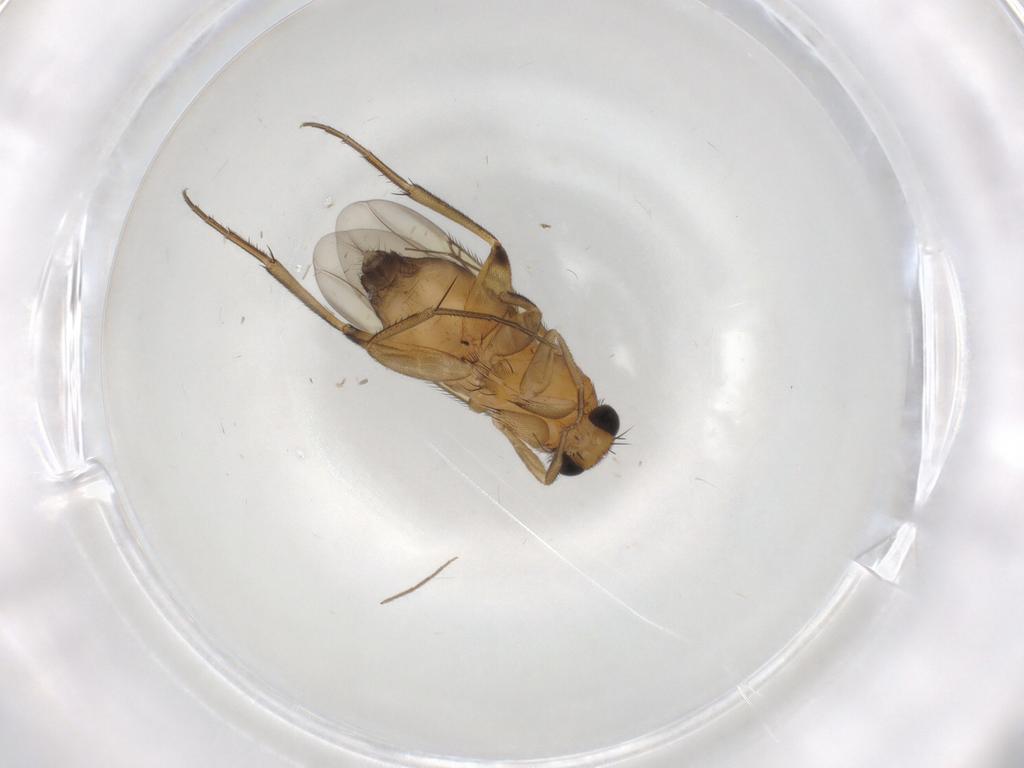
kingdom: Animalia
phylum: Arthropoda
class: Insecta
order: Diptera
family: Phoridae
